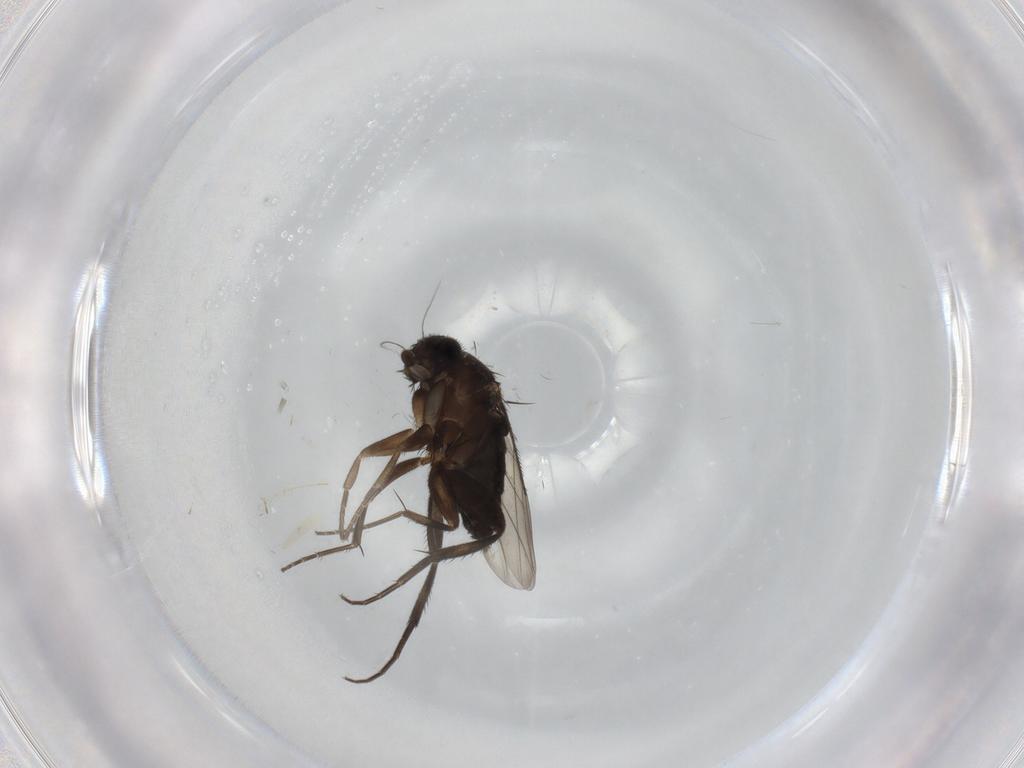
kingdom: Animalia
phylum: Arthropoda
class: Insecta
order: Diptera
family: Cecidomyiidae
